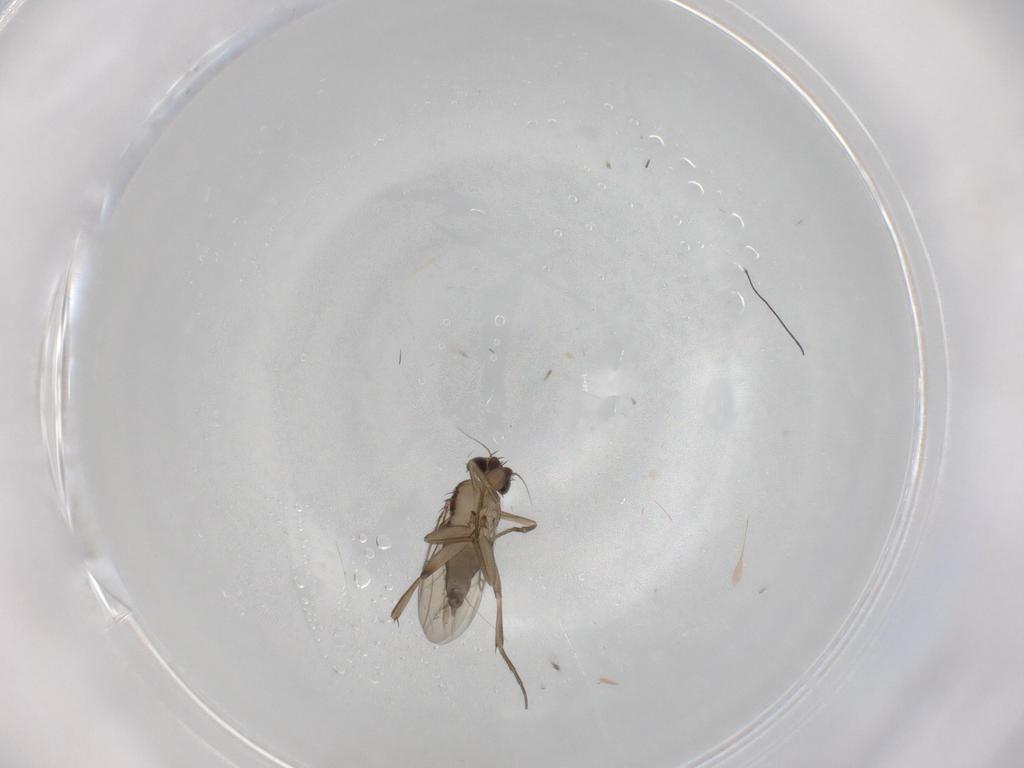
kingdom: Animalia
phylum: Arthropoda
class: Insecta
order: Diptera
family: Phoridae
